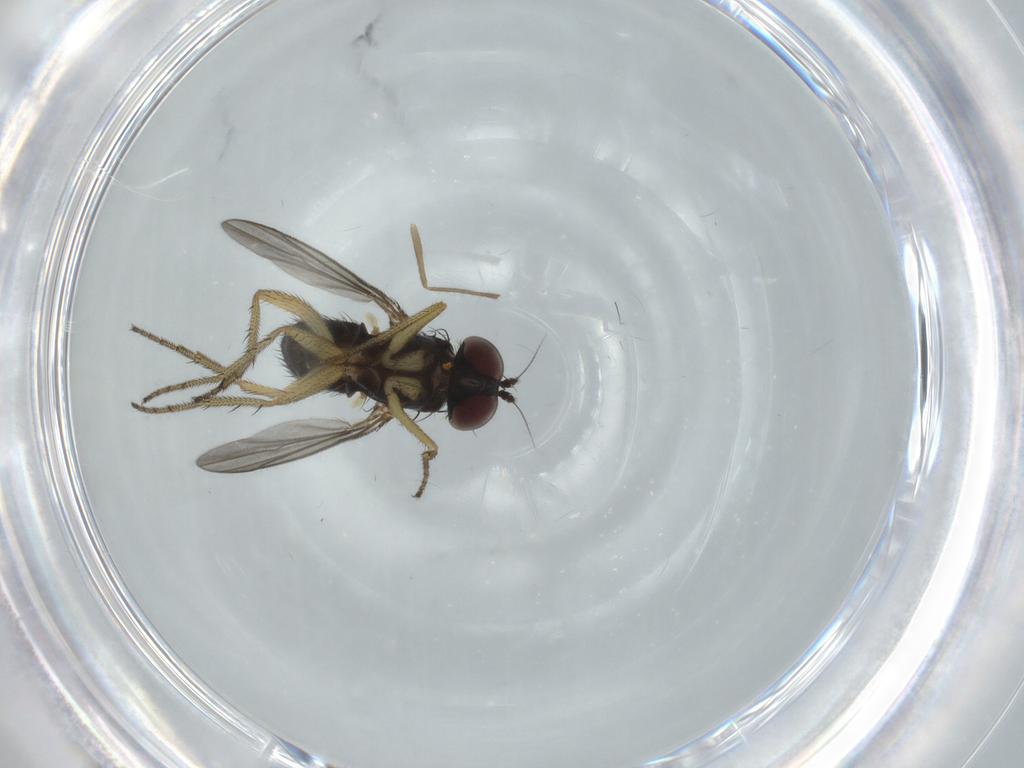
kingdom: Animalia
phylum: Arthropoda
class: Insecta
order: Diptera
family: Dolichopodidae
